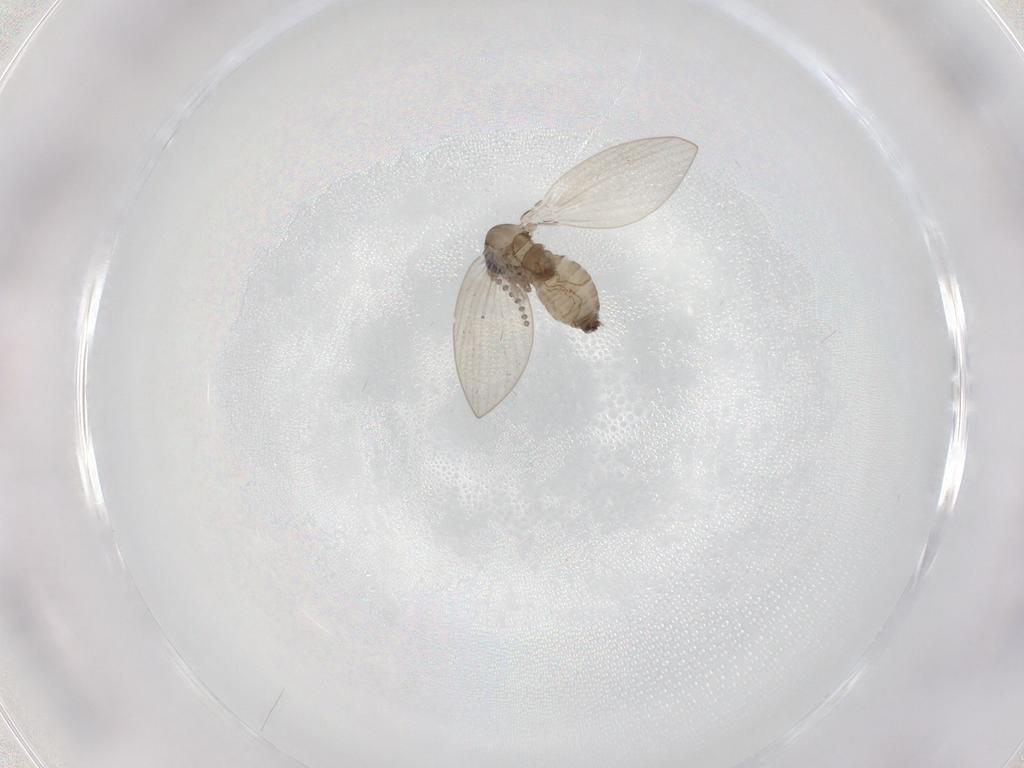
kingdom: Animalia
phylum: Arthropoda
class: Insecta
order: Diptera
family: Psychodidae
